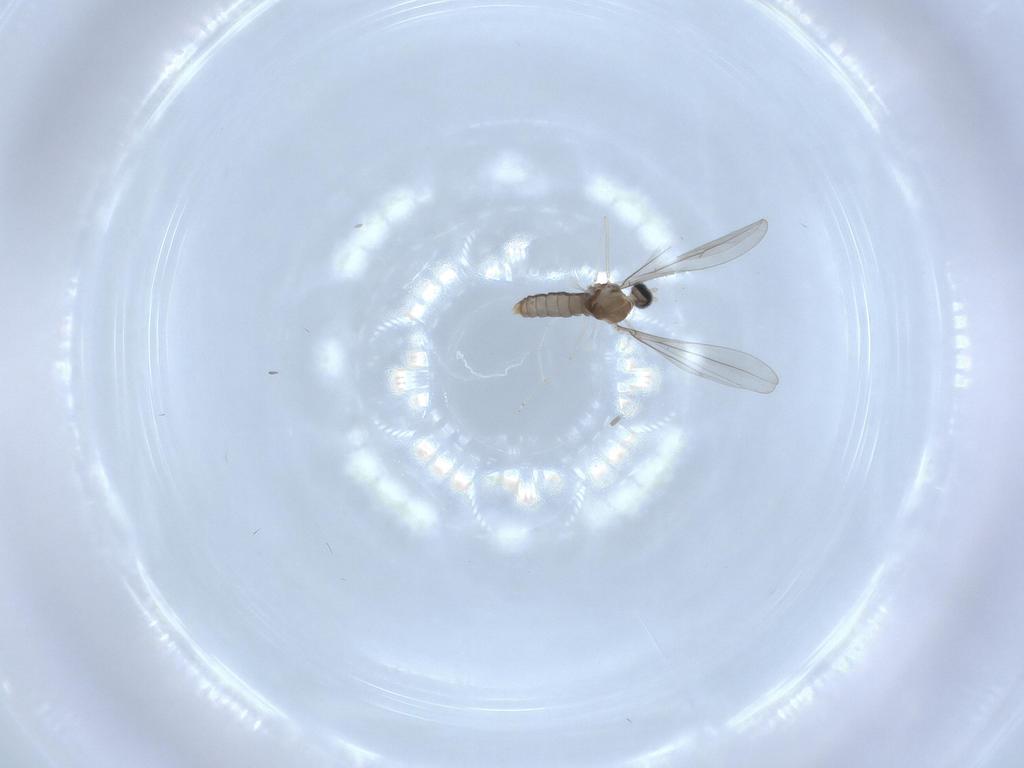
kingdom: Animalia
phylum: Arthropoda
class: Insecta
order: Diptera
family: Cecidomyiidae
